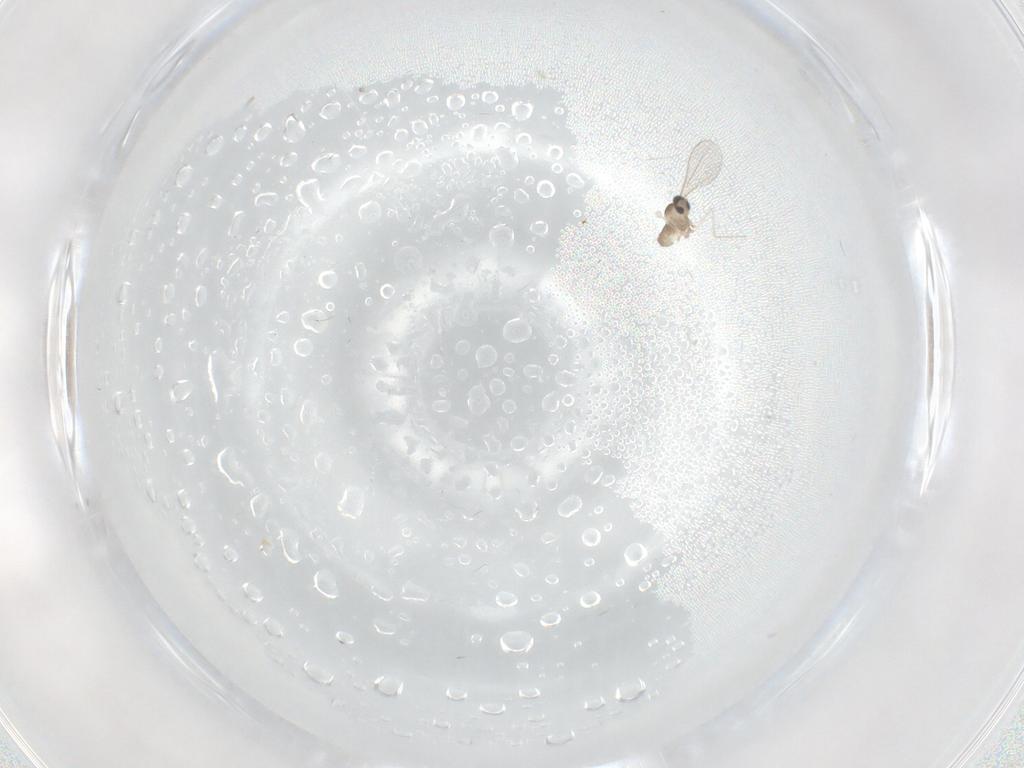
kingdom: Animalia
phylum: Arthropoda
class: Insecta
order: Diptera
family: Cecidomyiidae
